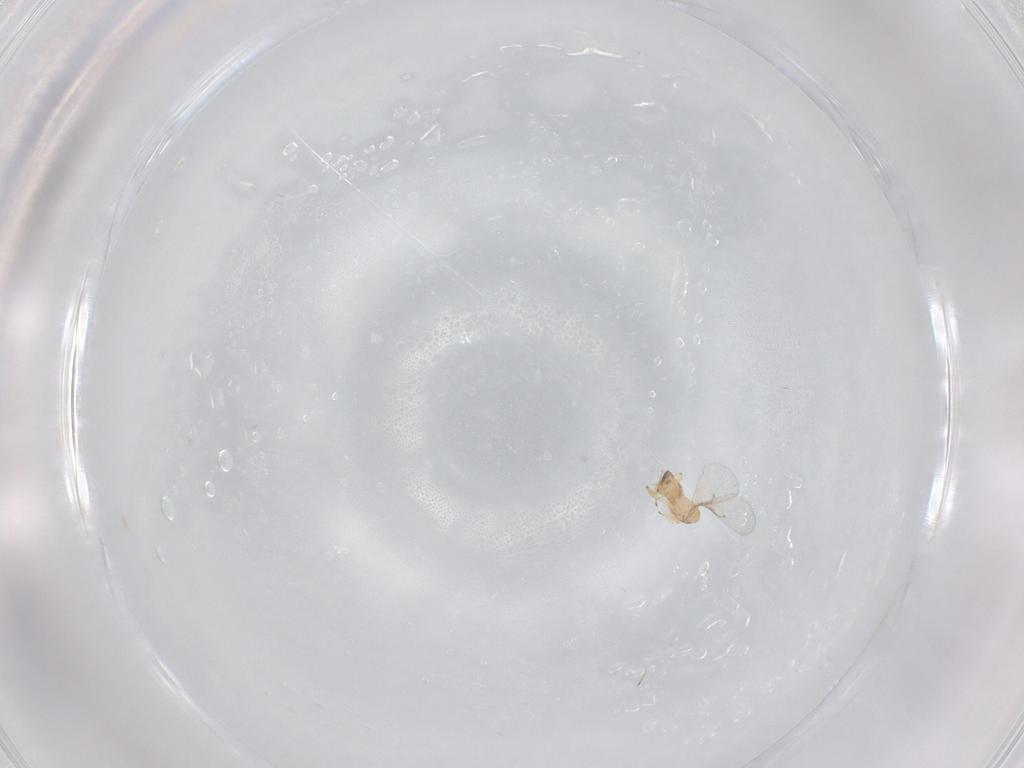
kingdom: Animalia
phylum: Arthropoda
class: Insecta
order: Hymenoptera
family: Trichogrammatidae
